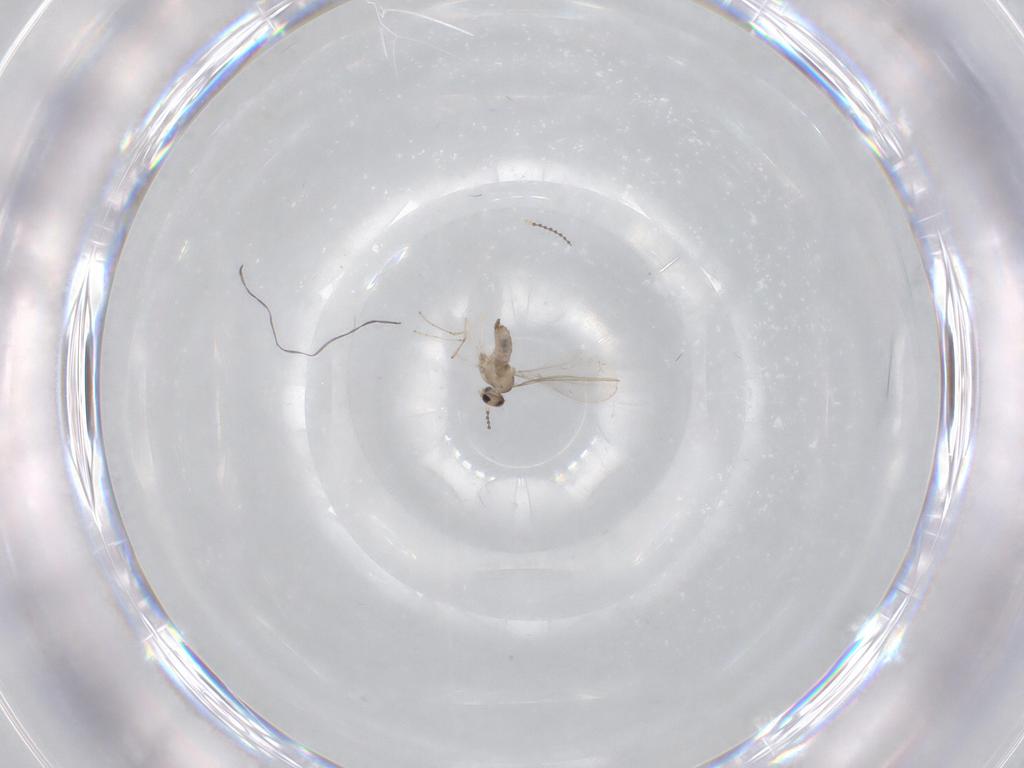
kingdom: Animalia
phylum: Arthropoda
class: Insecta
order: Diptera
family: Cecidomyiidae
